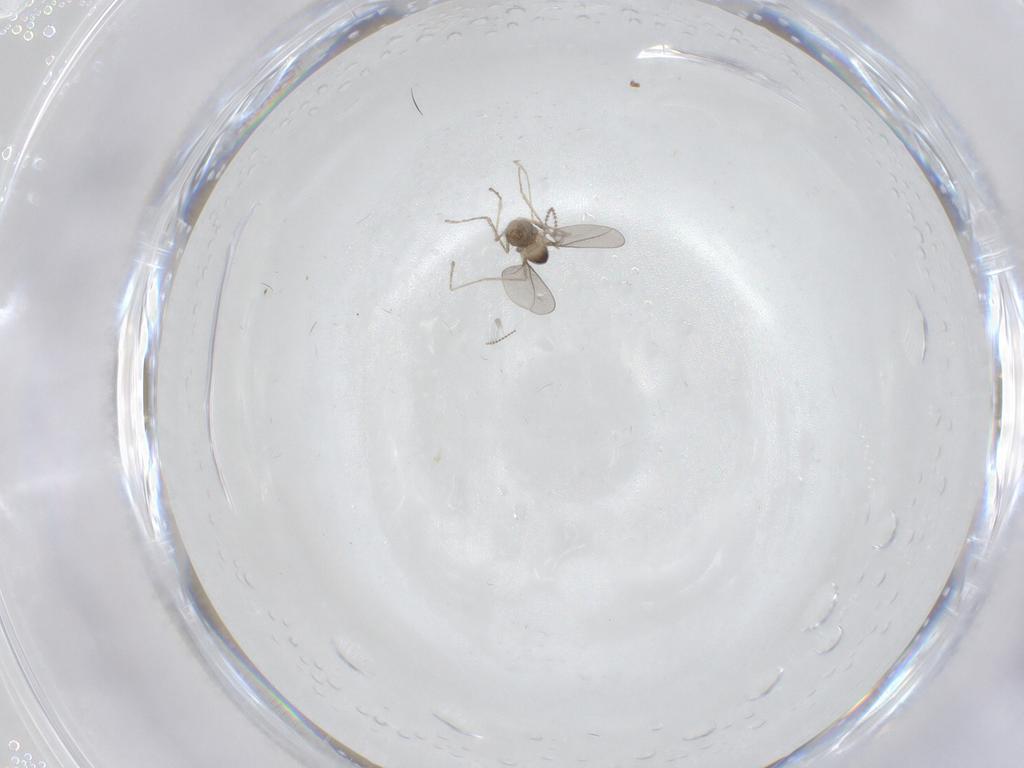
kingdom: Animalia
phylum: Arthropoda
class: Insecta
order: Diptera
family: Cecidomyiidae
